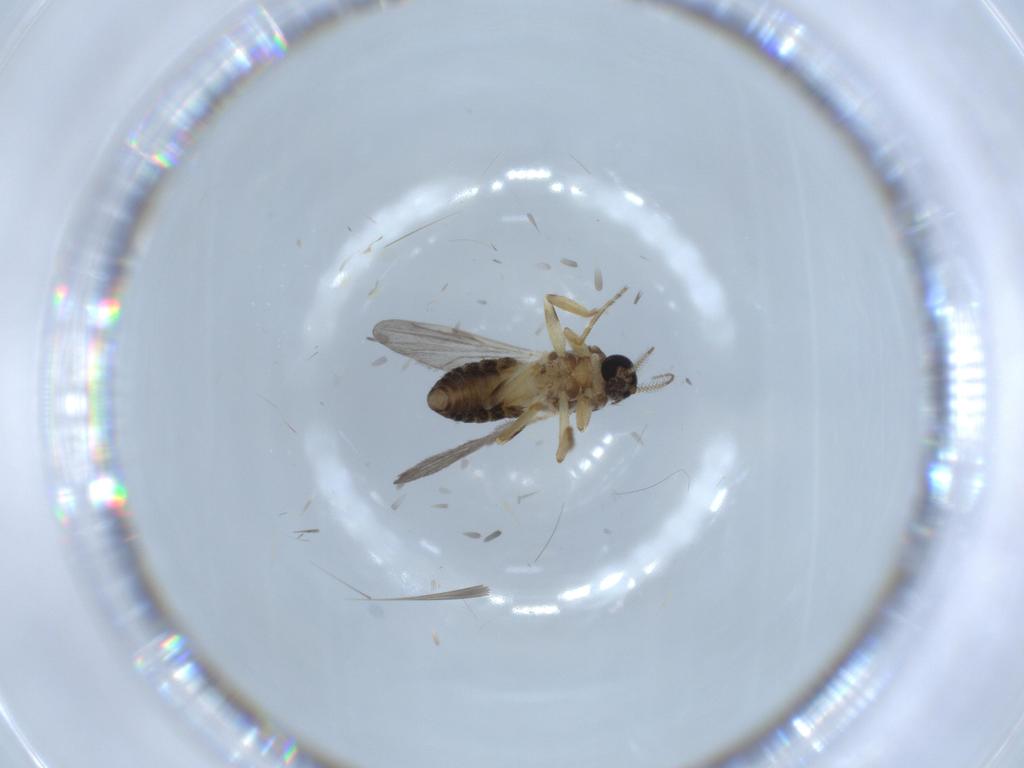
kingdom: Animalia
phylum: Arthropoda
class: Insecta
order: Diptera
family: Ceratopogonidae
